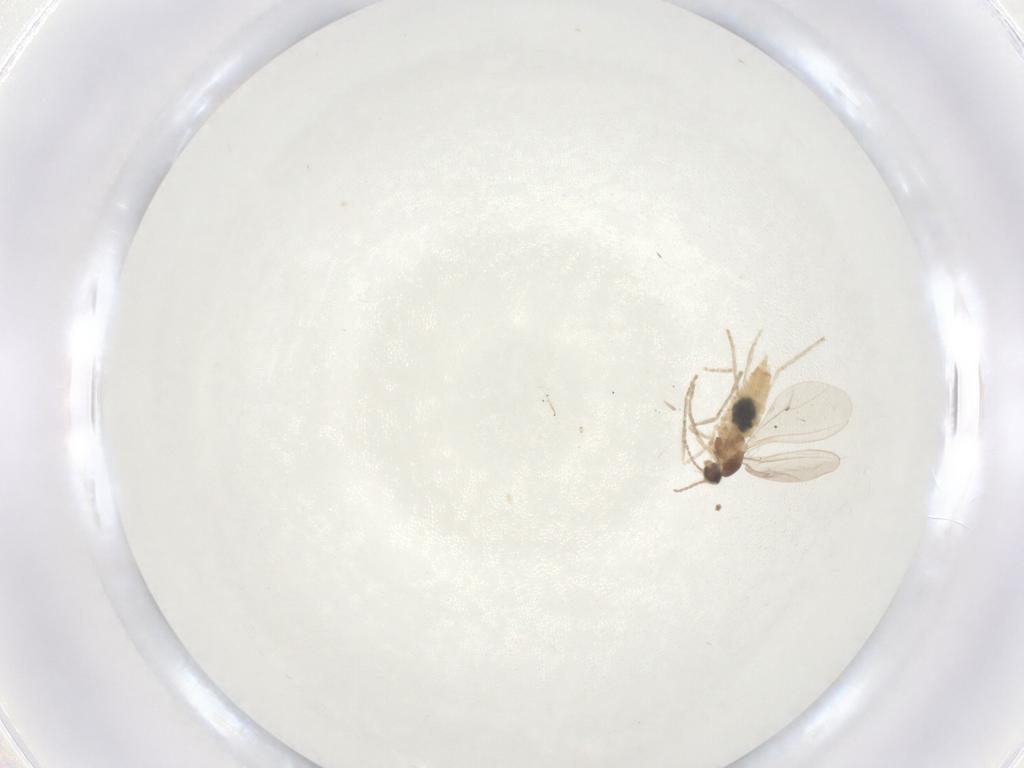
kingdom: Animalia
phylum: Arthropoda
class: Insecta
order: Diptera
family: Cecidomyiidae
